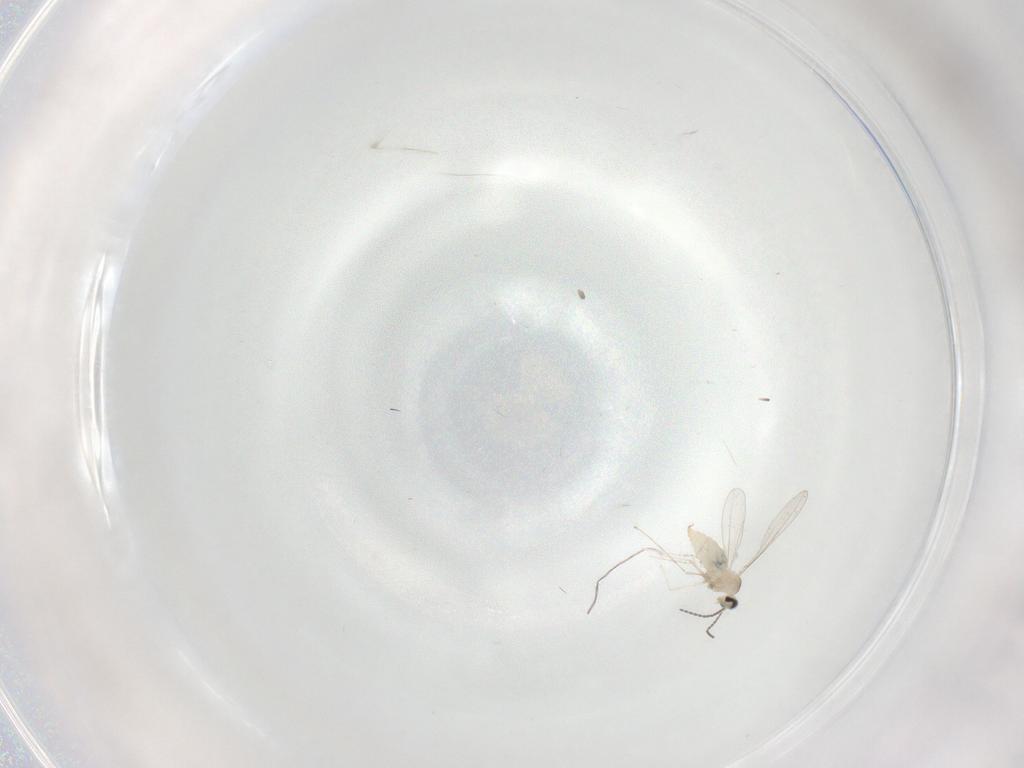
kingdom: Animalia
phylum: Arthropoda
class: Insecta
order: Diptera
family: Cecidomyiidae
